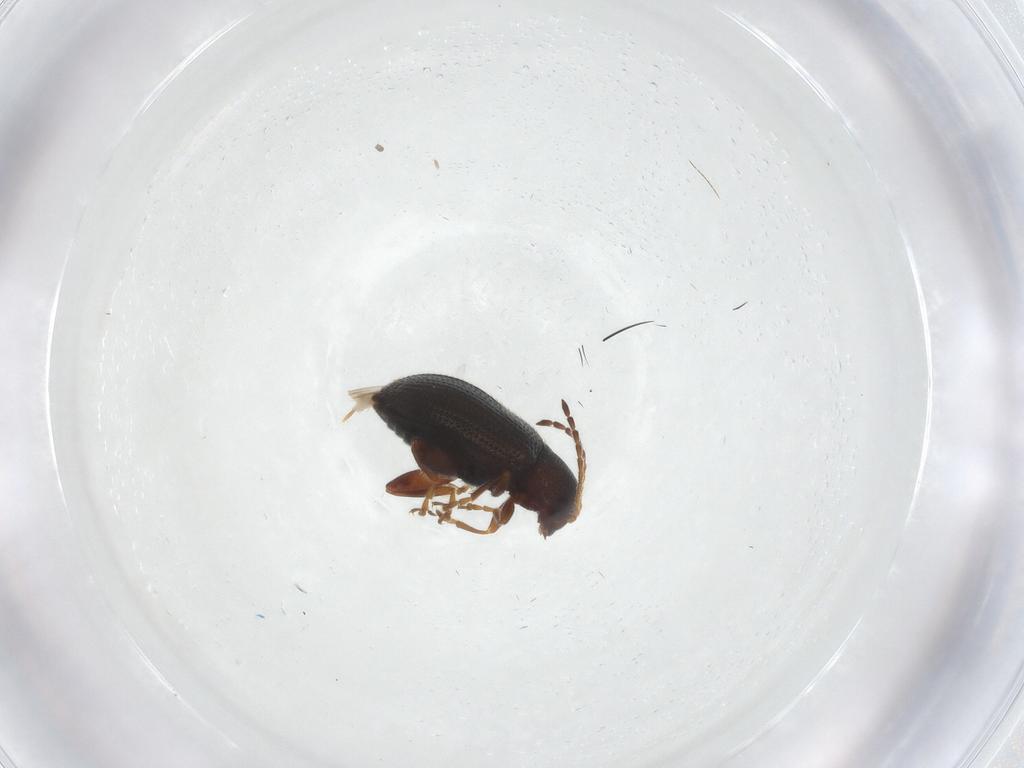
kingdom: Animalia
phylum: Arthropoda
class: Insecta
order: Coleoptera
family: Chrysomelidae
